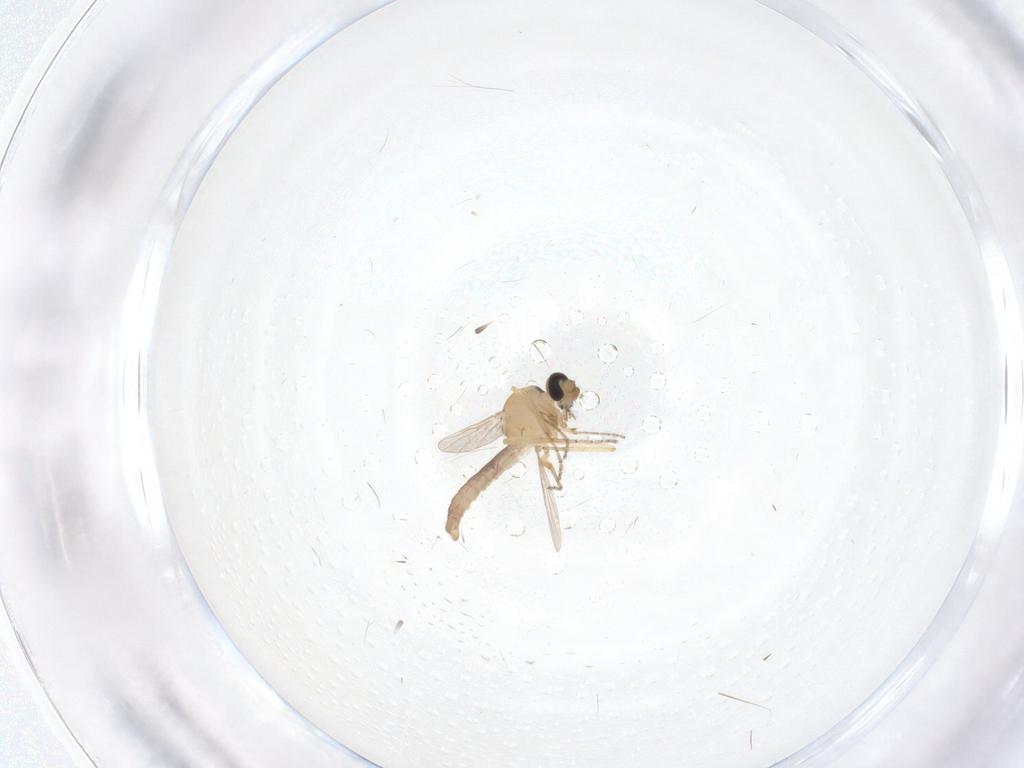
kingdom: Animalia
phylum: Arthropoda
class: Insecta
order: Diptera
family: Ceratopogonidae
